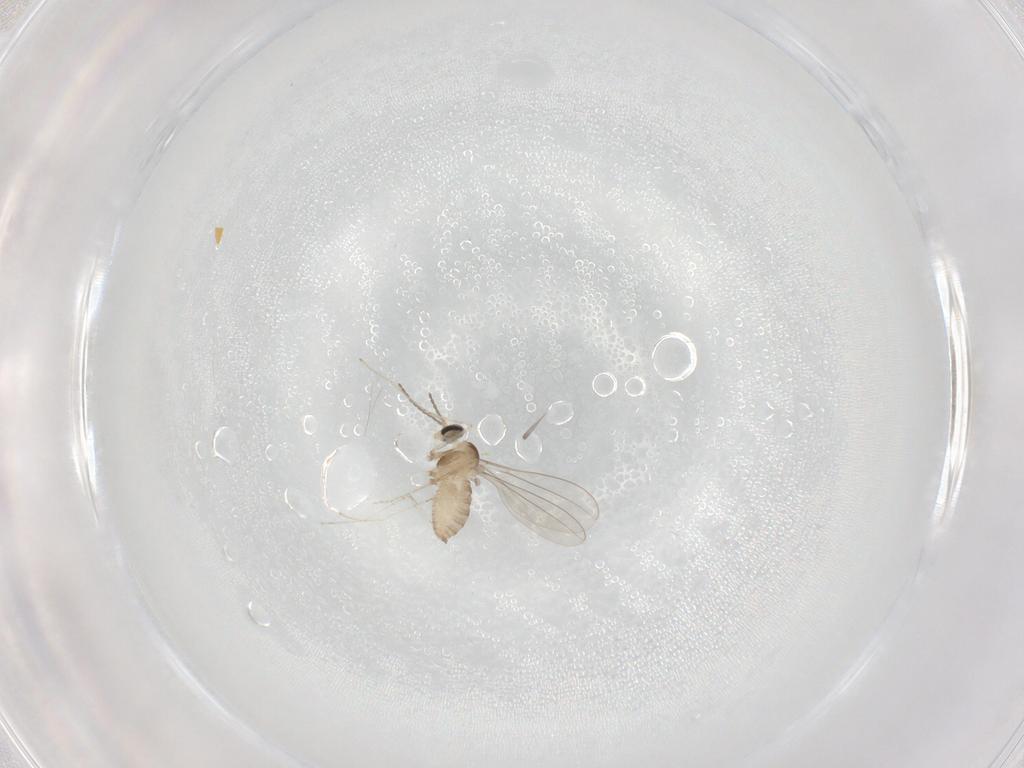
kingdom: Animalia
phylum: Arthropoda
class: Insecta
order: Diptera
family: Cecidomyiidae
